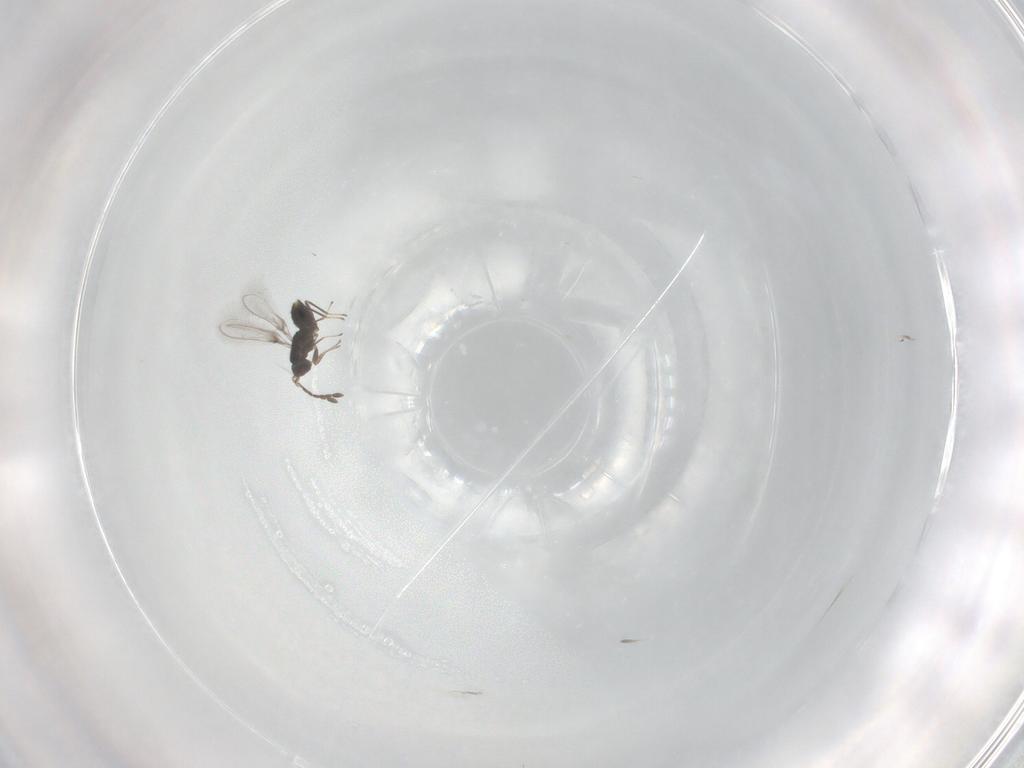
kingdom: Animalia
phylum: Arthropoda
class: Insecta
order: Hymenoptera
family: Mymaridae
